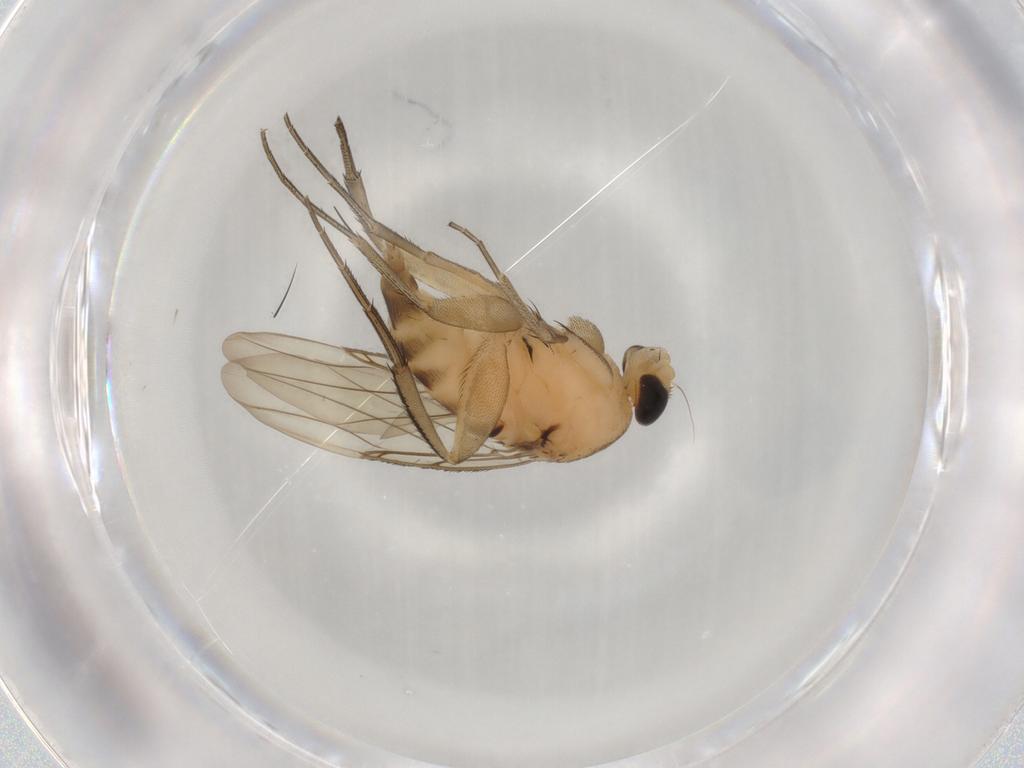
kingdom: Animalia
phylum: Arthropoda
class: Insecta
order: Diptera
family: Phoridae
